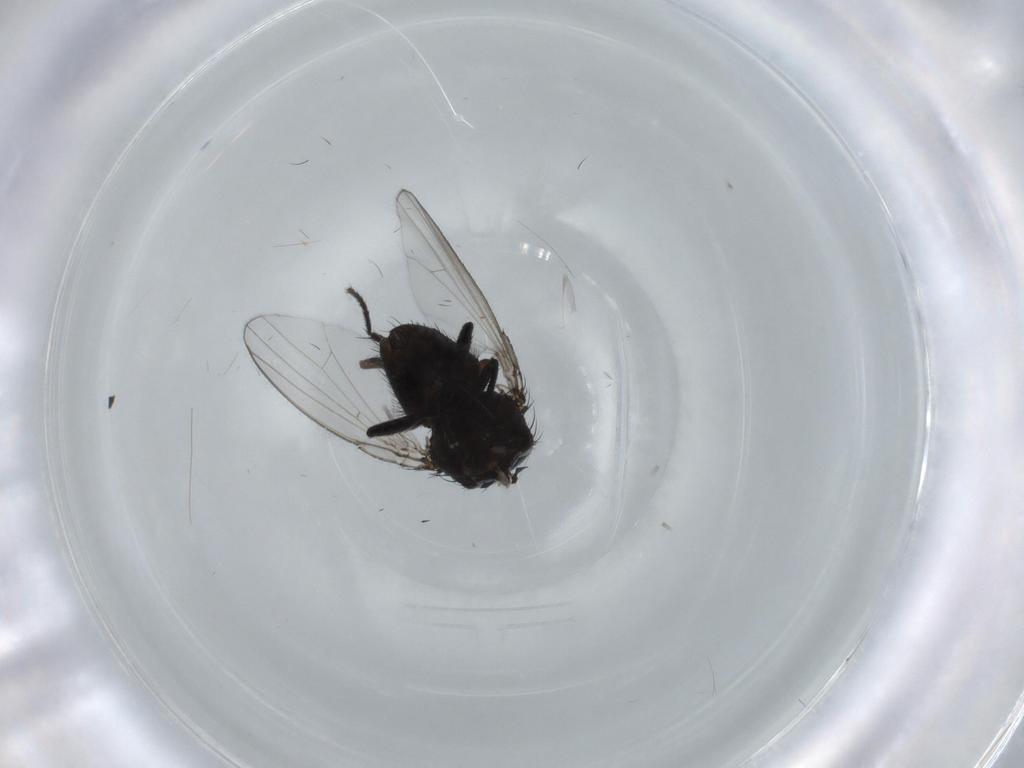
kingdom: Animalia
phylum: Arthropoda
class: Insecta
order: Diptera
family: Milichiidae
